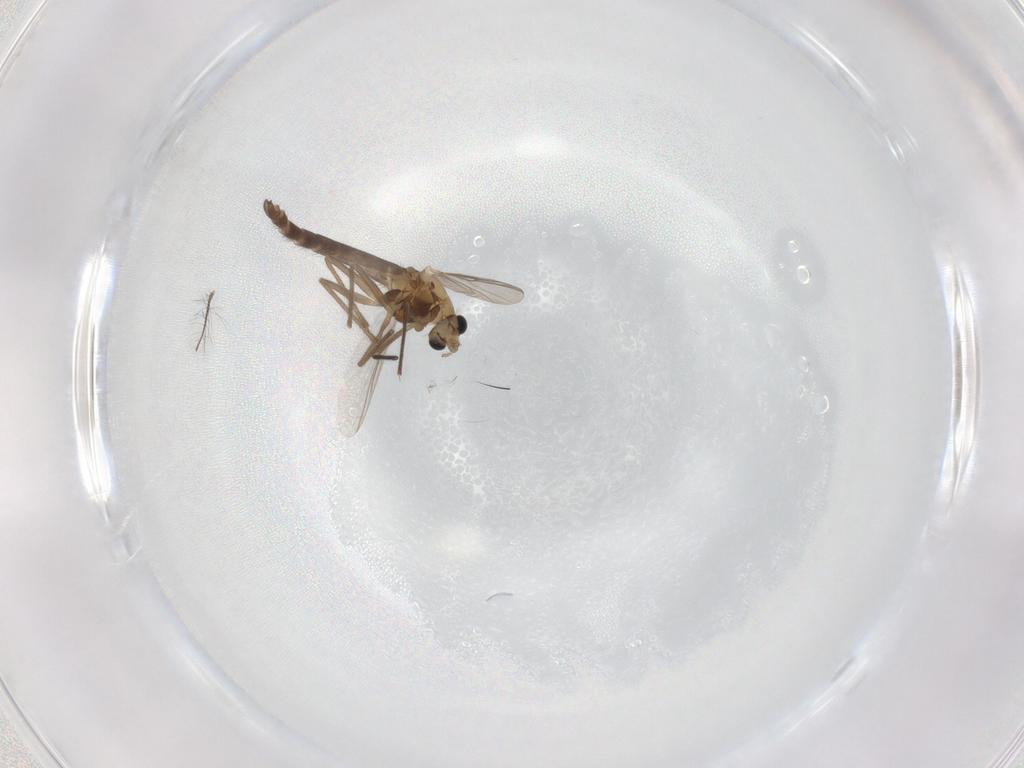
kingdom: Animalia
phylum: Arthropoda
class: Insecta
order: Diptera
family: Chironomidae
